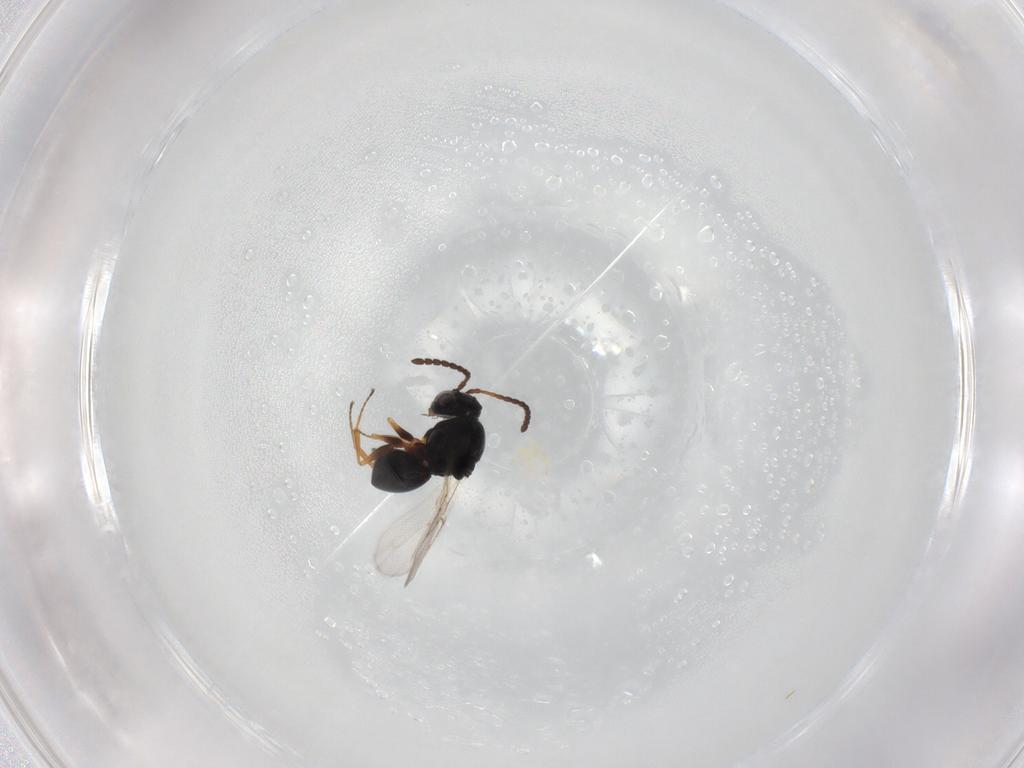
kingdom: Animalia
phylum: Arthropoda
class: Insecta
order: Hymenoptera
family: Figitidae
